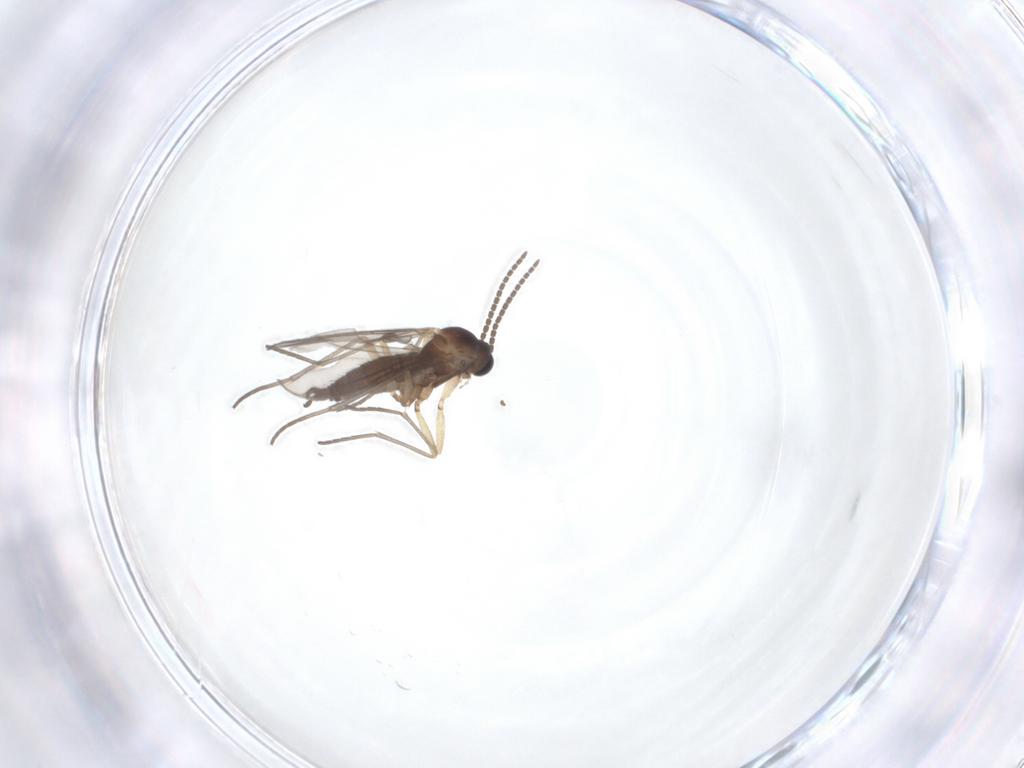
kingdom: Animalia
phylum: Arthropoda
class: Insecta
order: Diptera
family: Sciaridae
